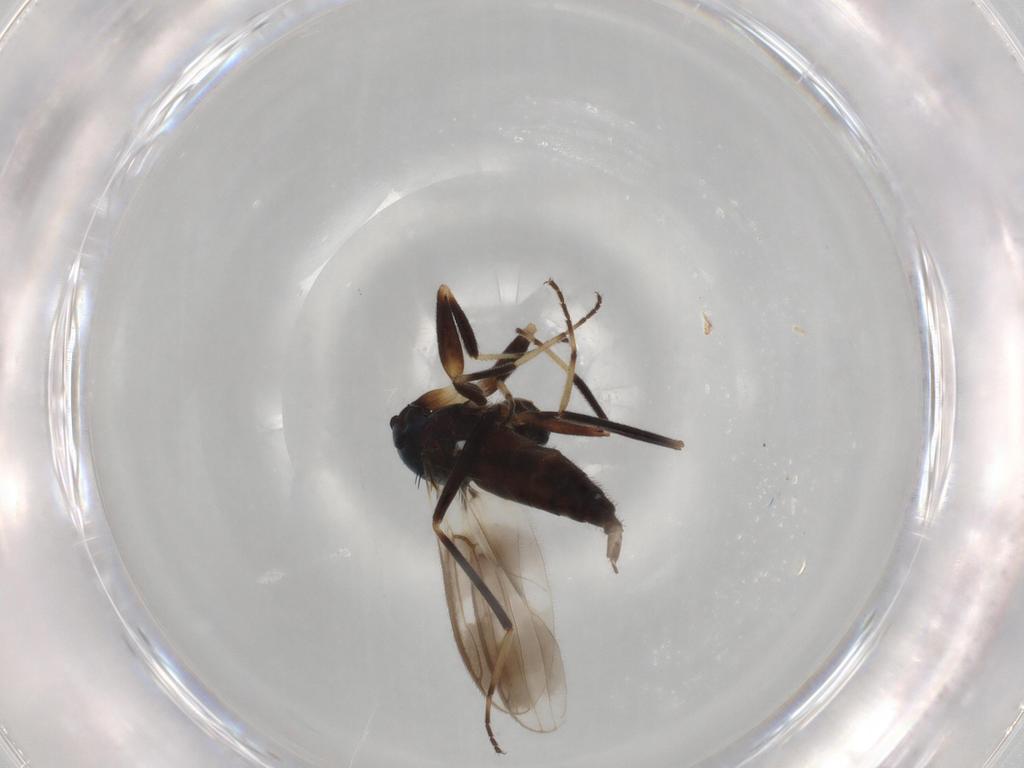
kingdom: Animalia
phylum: Arthropoda
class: Insecta
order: Diptera
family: Hybotidae
